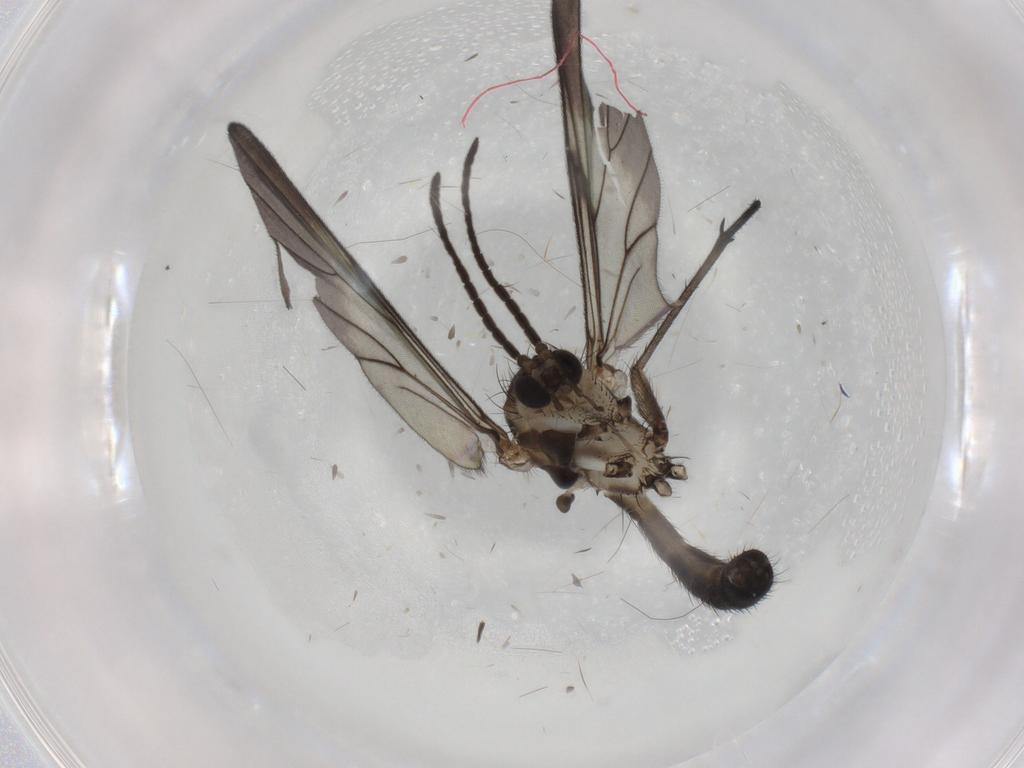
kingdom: Animalia
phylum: Arthropoda
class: Insecta
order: Diptera
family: Mycetophilidae
